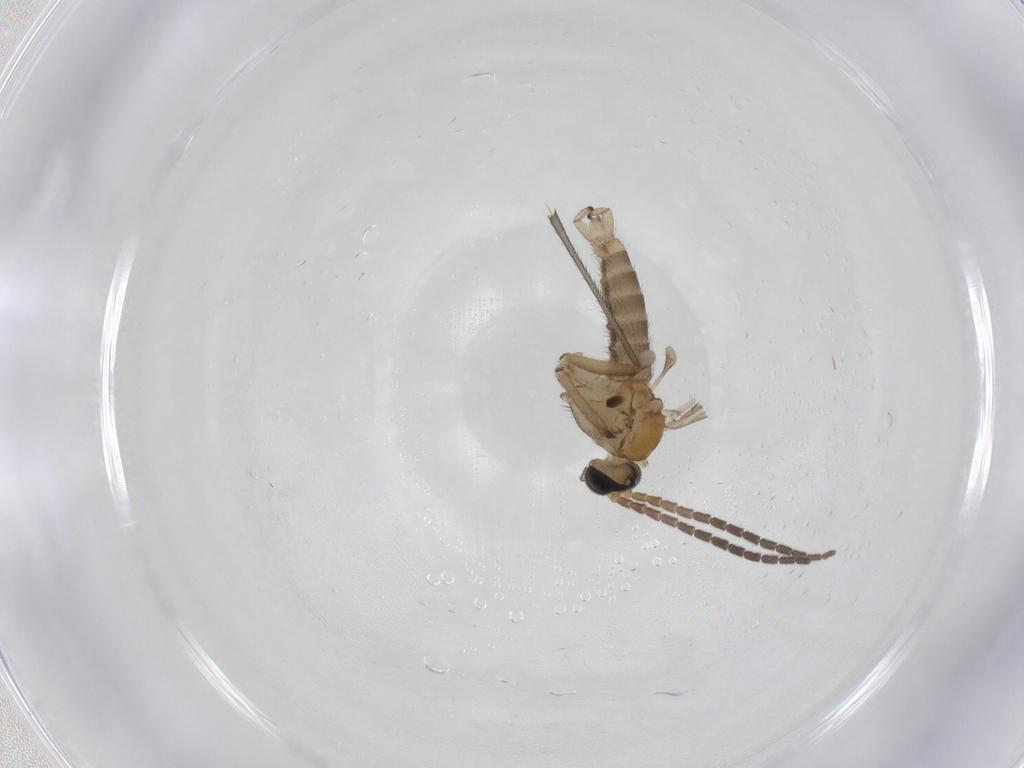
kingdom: Animalia
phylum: Arthropoda
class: Insecta
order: Diptera
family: Sciaridae
